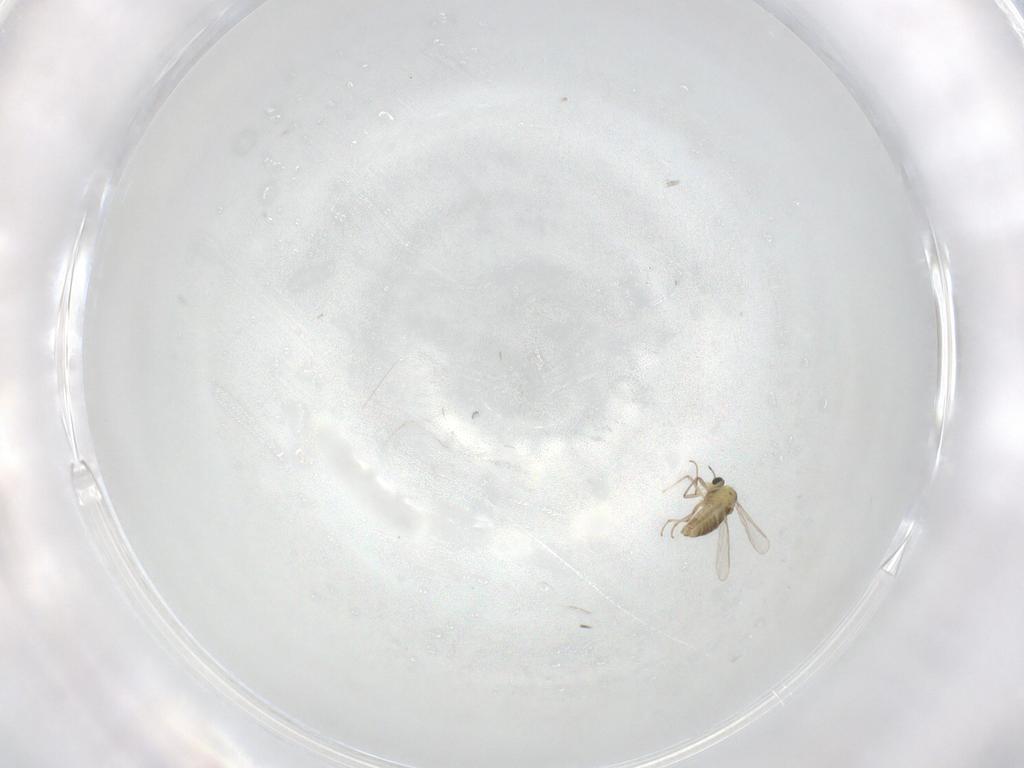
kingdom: Animalia
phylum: Arthropoda
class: Insecta
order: Diptera
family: Chironomidae
